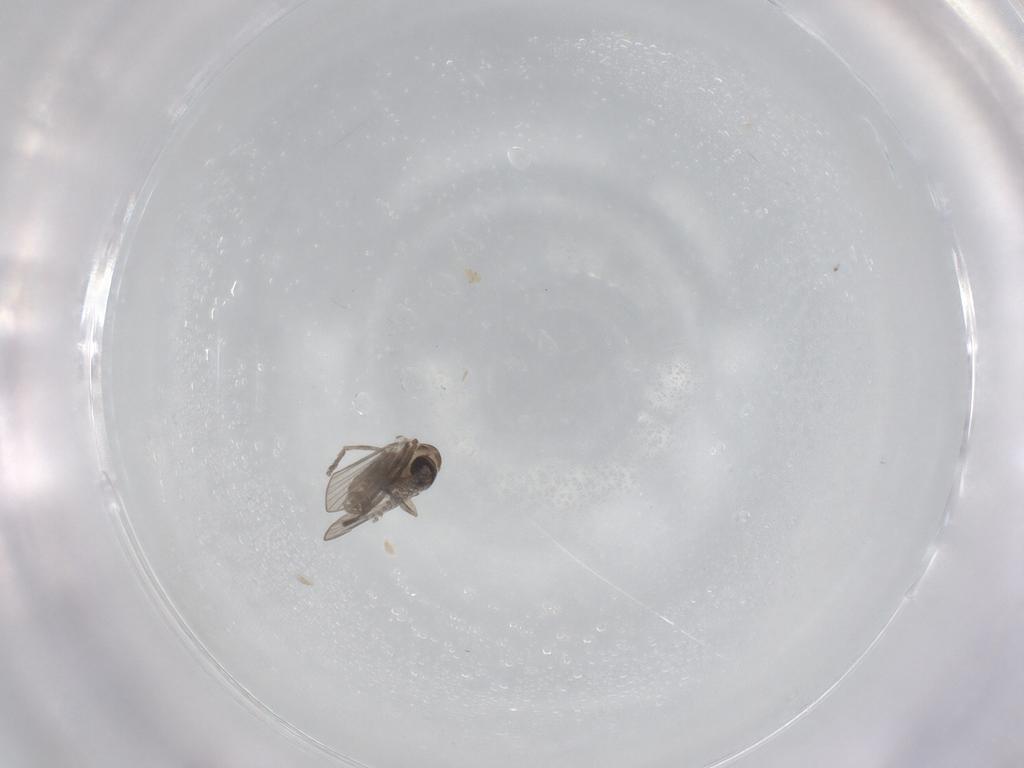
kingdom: Animalia
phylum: Arthropoda
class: Insecta
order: Diptera
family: Psychodidae
